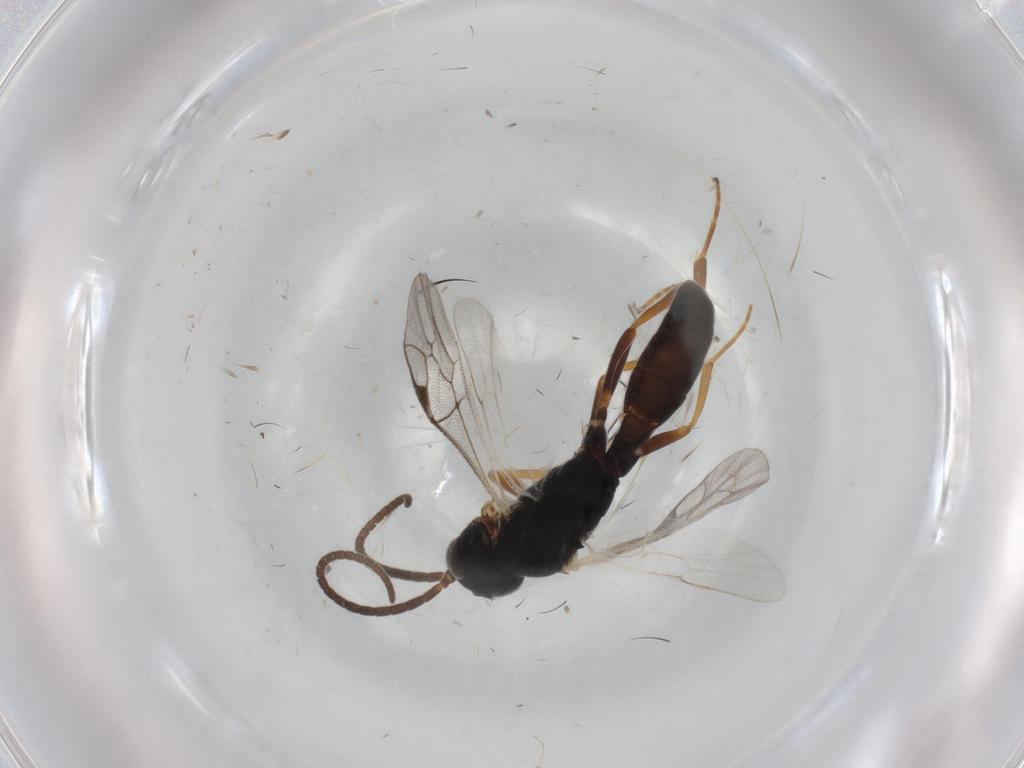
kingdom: Animalia
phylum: Arthropoda
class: Insecta
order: Hymenoptera
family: Ichneumonidae
